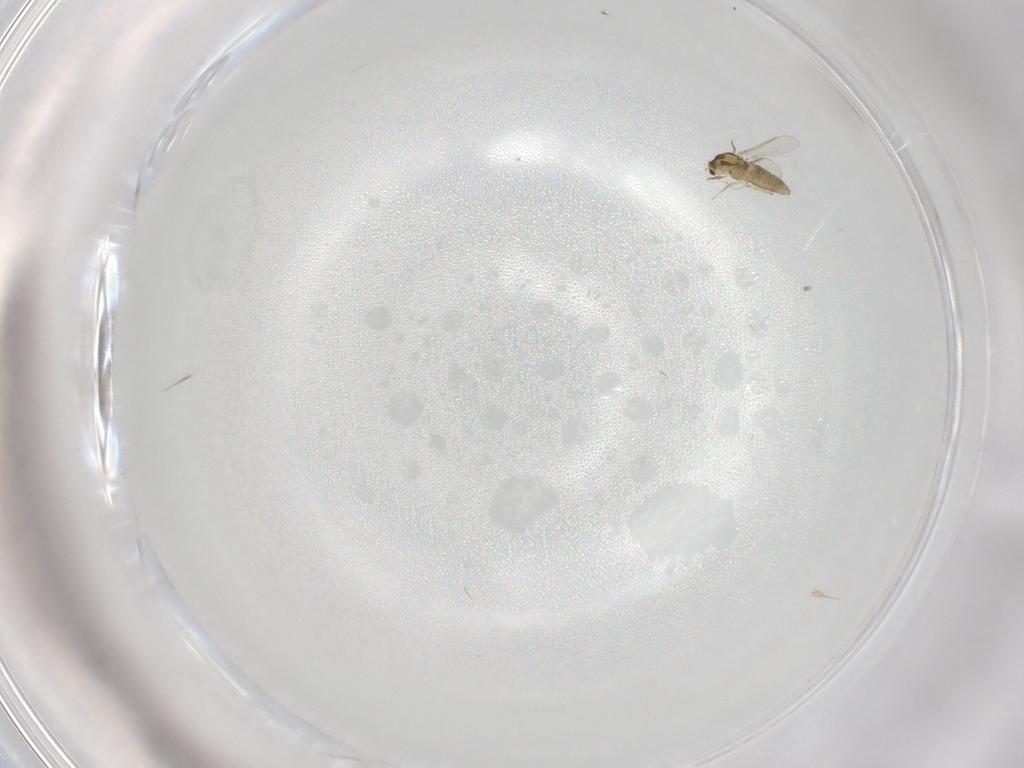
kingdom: Animalia
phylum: Arthropoda
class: Insecta
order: Diptera
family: Chironomidae
